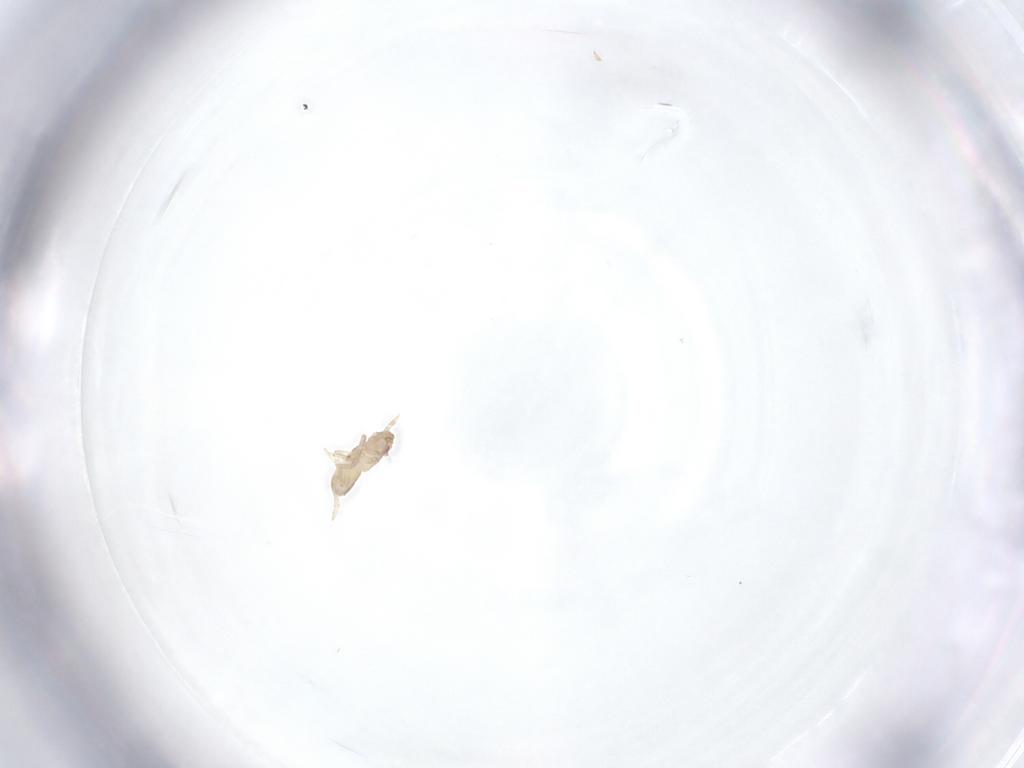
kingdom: Animalia
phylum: Arthropoda
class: Insecta
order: Hemiptera
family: Delphacidae
